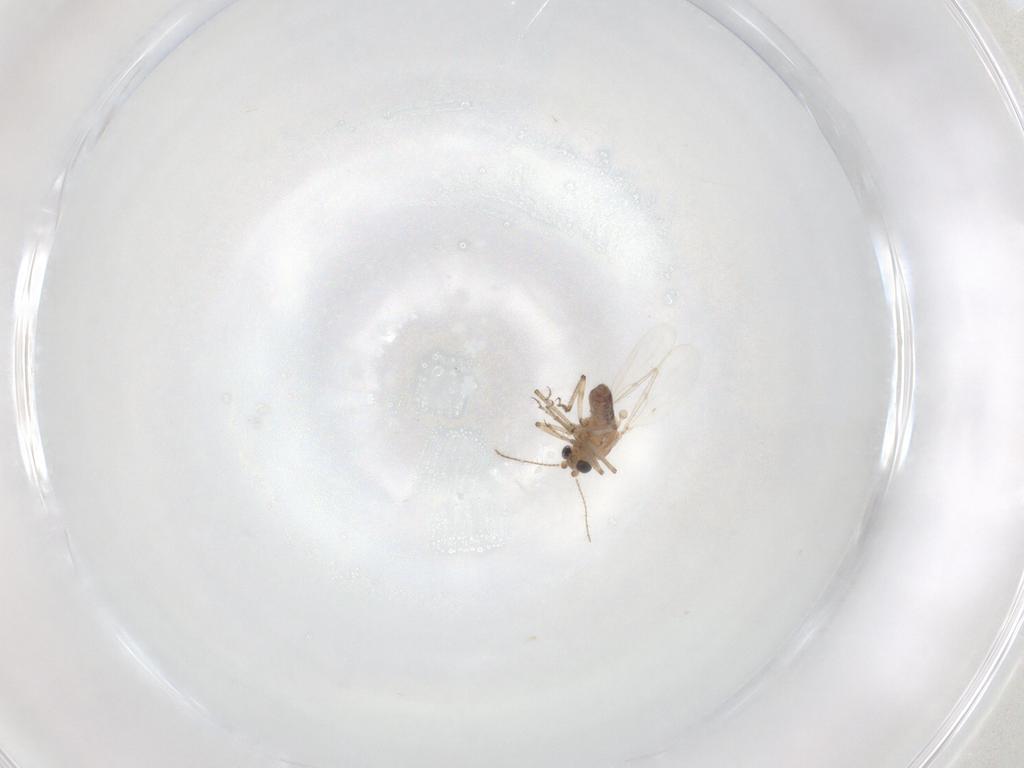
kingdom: Animalia
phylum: Arthropoda
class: Insecta
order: Diptera
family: Ceratopogonidae
